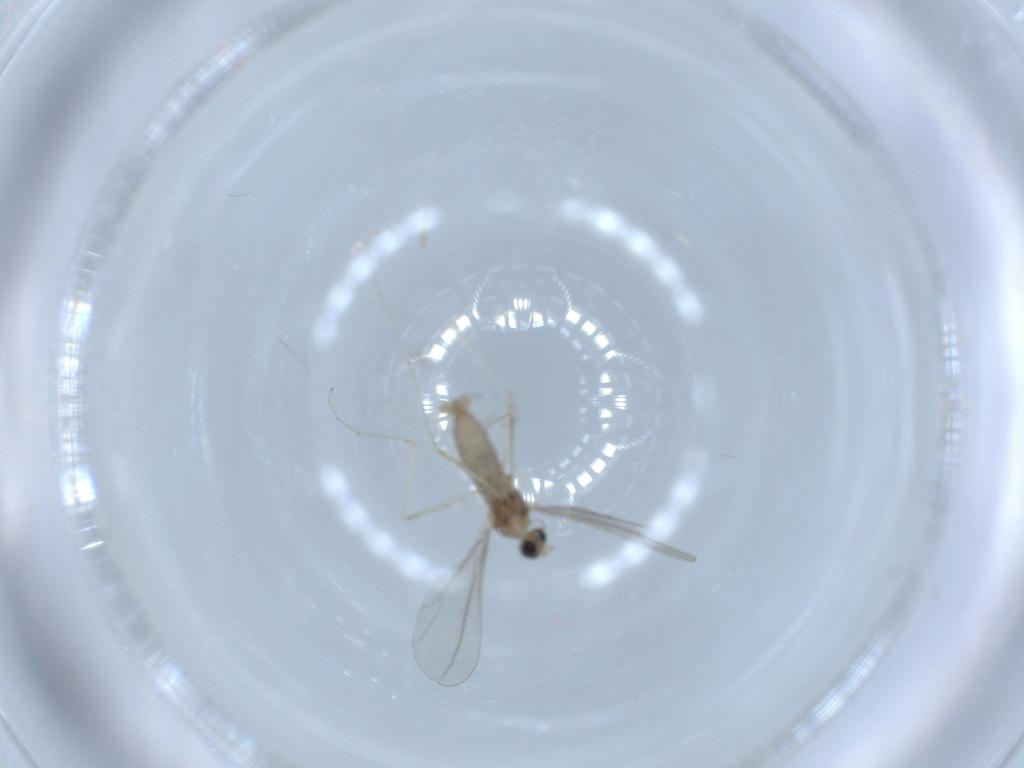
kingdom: Animalia
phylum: Arthropoda
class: Insecta
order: Diptera
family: Cecidomyiidae
